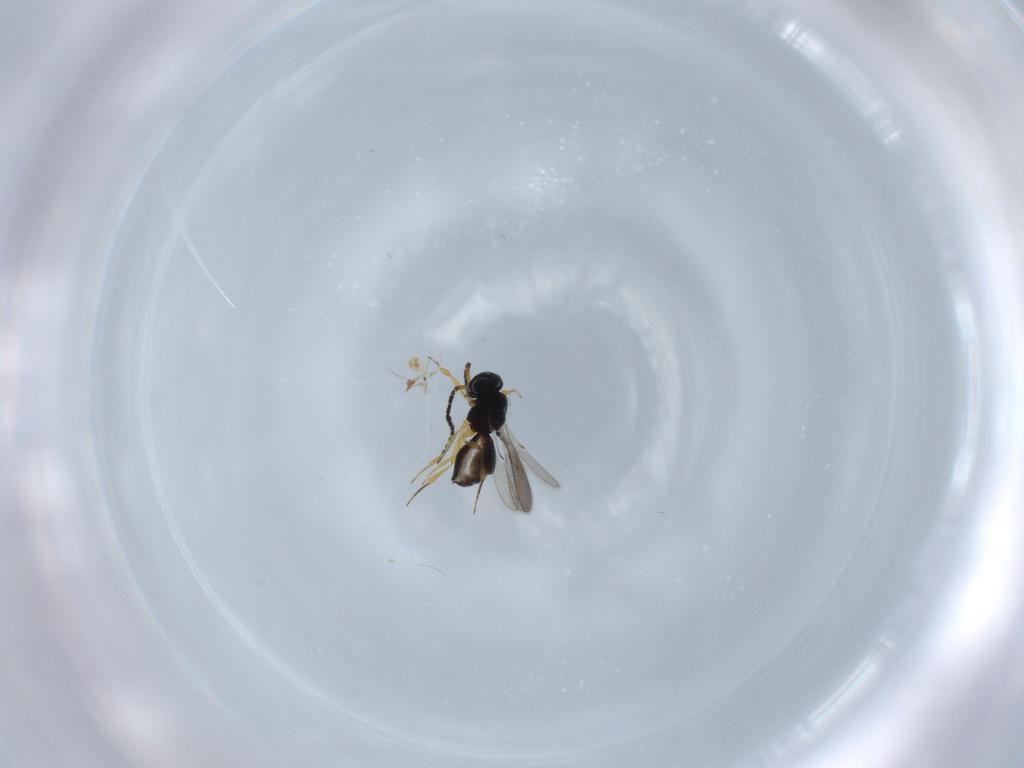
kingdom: Animalia
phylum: Arthropoda
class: Insecta
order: Hymenoptera
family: Scelionidae
